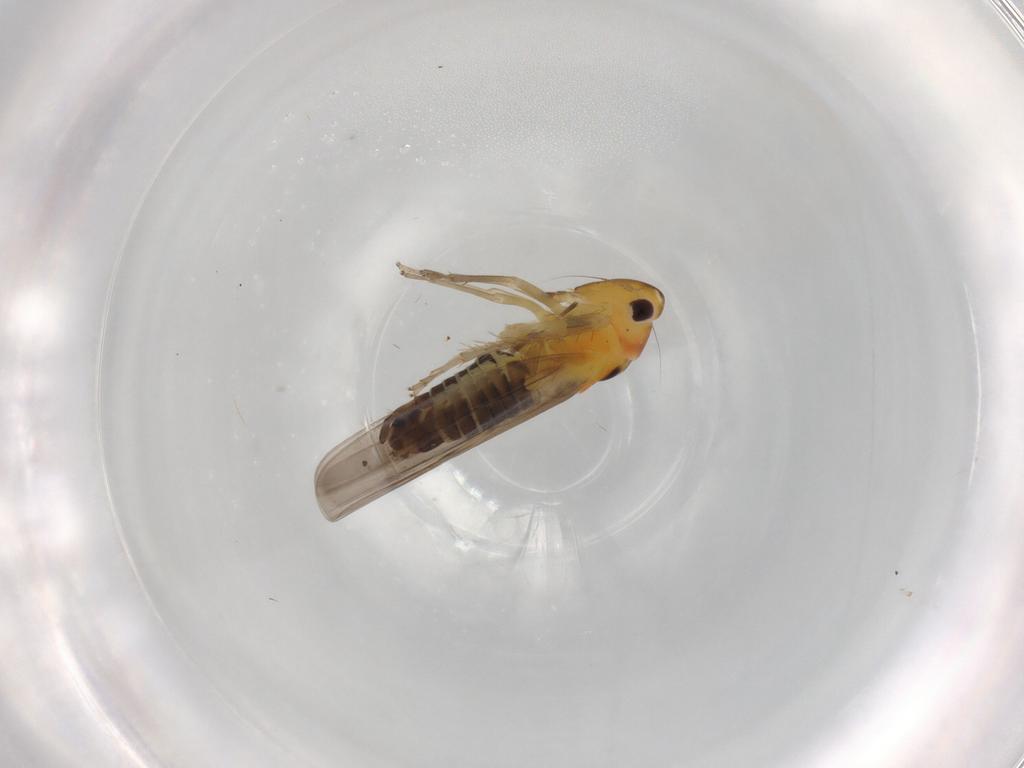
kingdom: Animalia
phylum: Arthropoda
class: Insecta
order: Hemiptera
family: Cicadellidae
